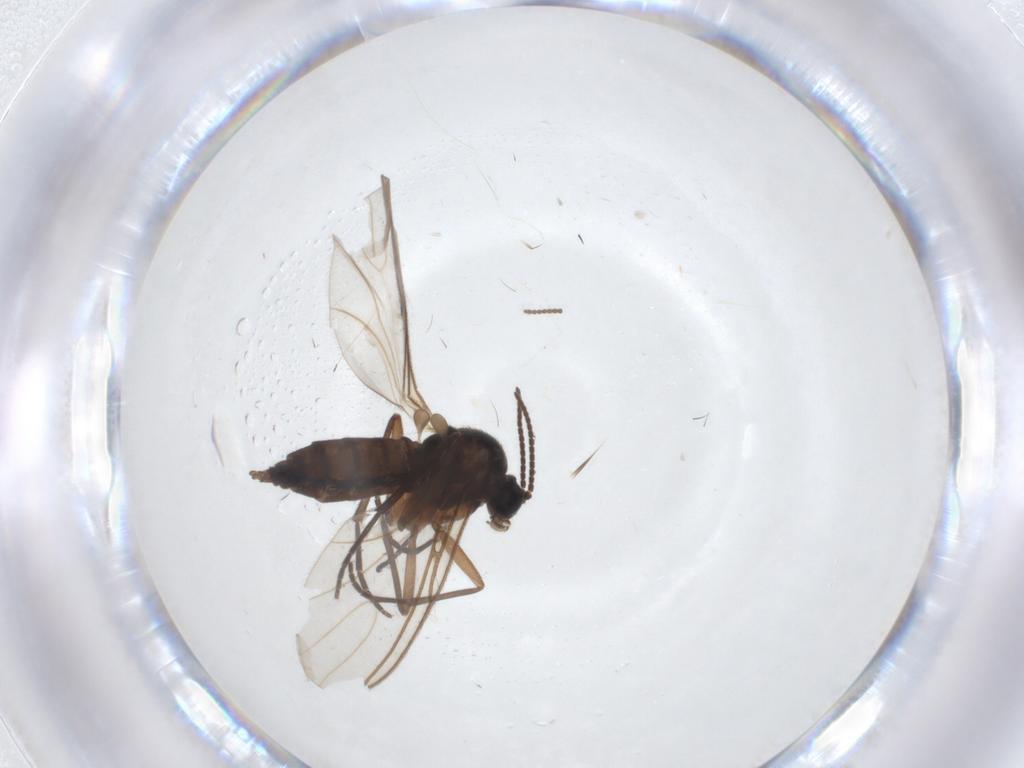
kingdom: Animalia
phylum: Arthropoda
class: Insecta
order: Diptera
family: Sciaridae
